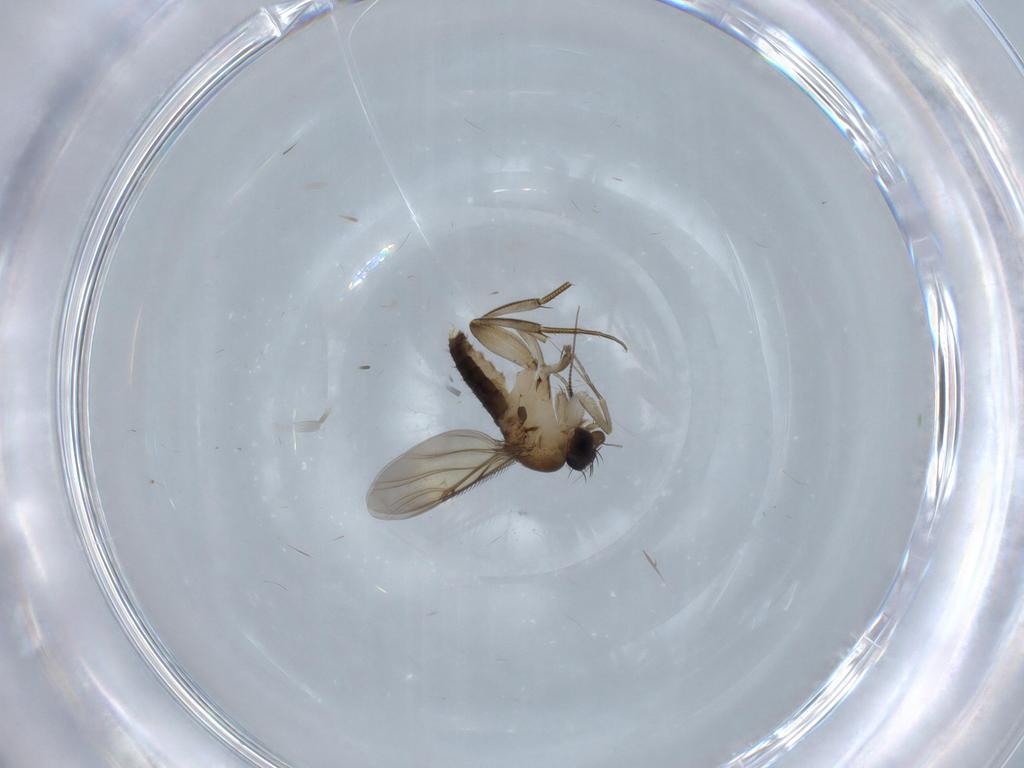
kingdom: Animalia
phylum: Arthropoda
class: Insecta
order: Diptera
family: Phoridae
